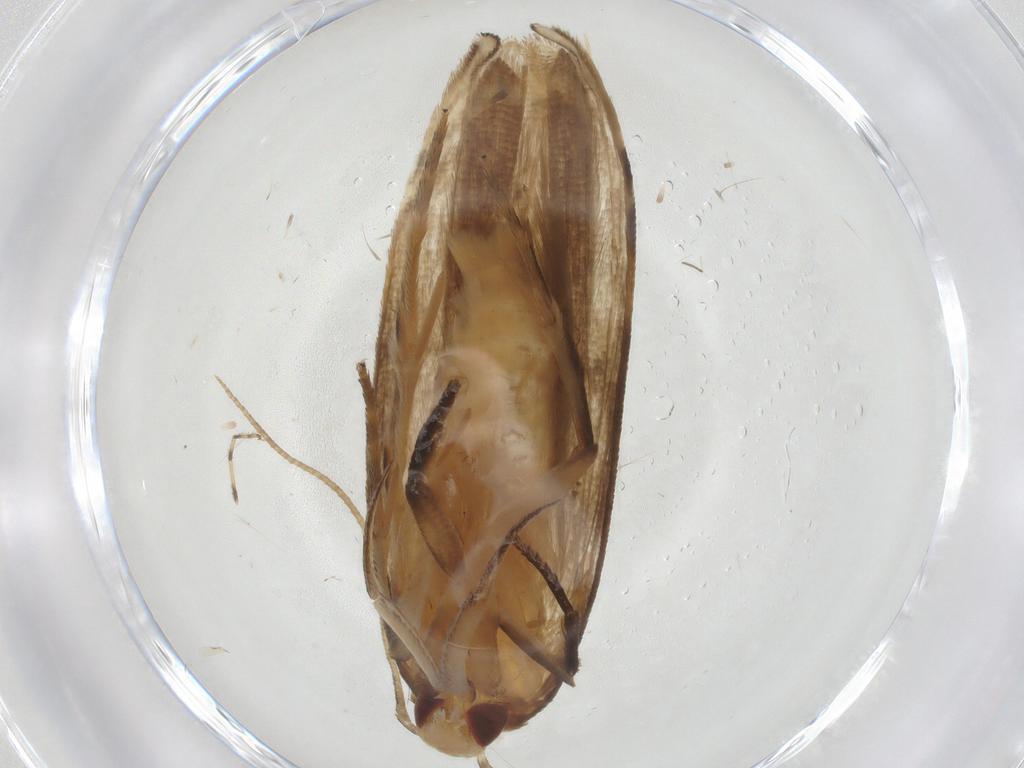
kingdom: Animalia
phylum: Arthropoda
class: Insecta
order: Lepidoptera
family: Erebidae
